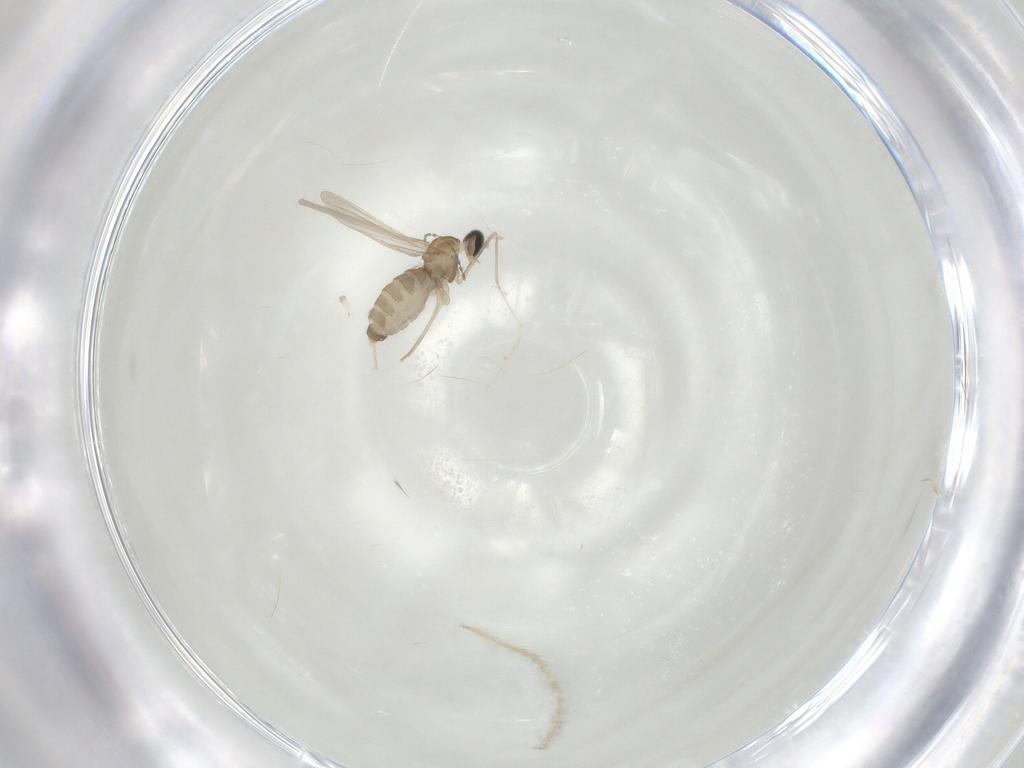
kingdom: Animalia
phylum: Arthropoda
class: Insecta
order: Diptera
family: Cecidomyiidae
